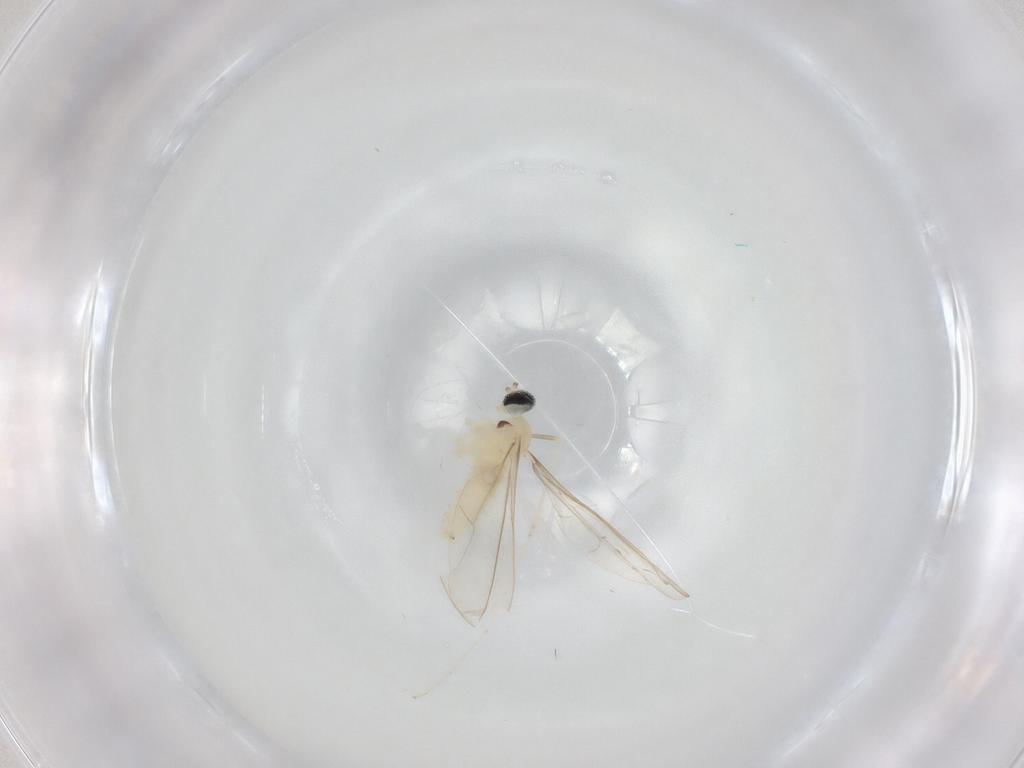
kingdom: Animalia
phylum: Arthropoda
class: Insecta
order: Diptera
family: Cecidomyiidae
